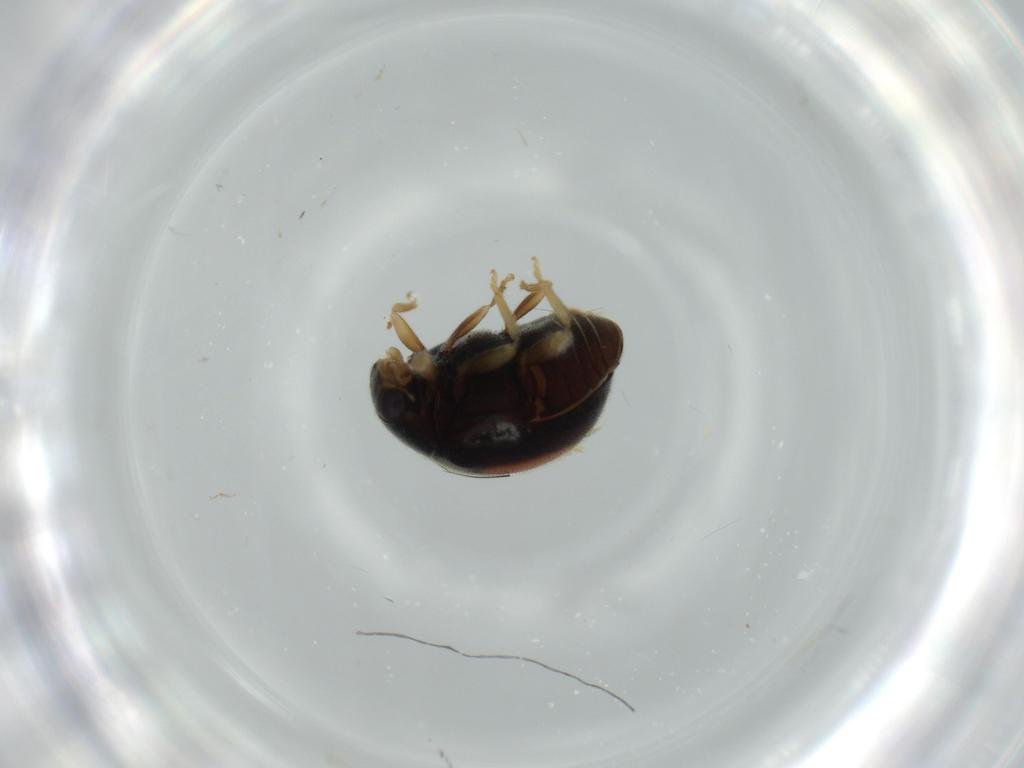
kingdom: Animalia
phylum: Arthropoda
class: Insecta
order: Coleoptera
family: Coccinellidae
